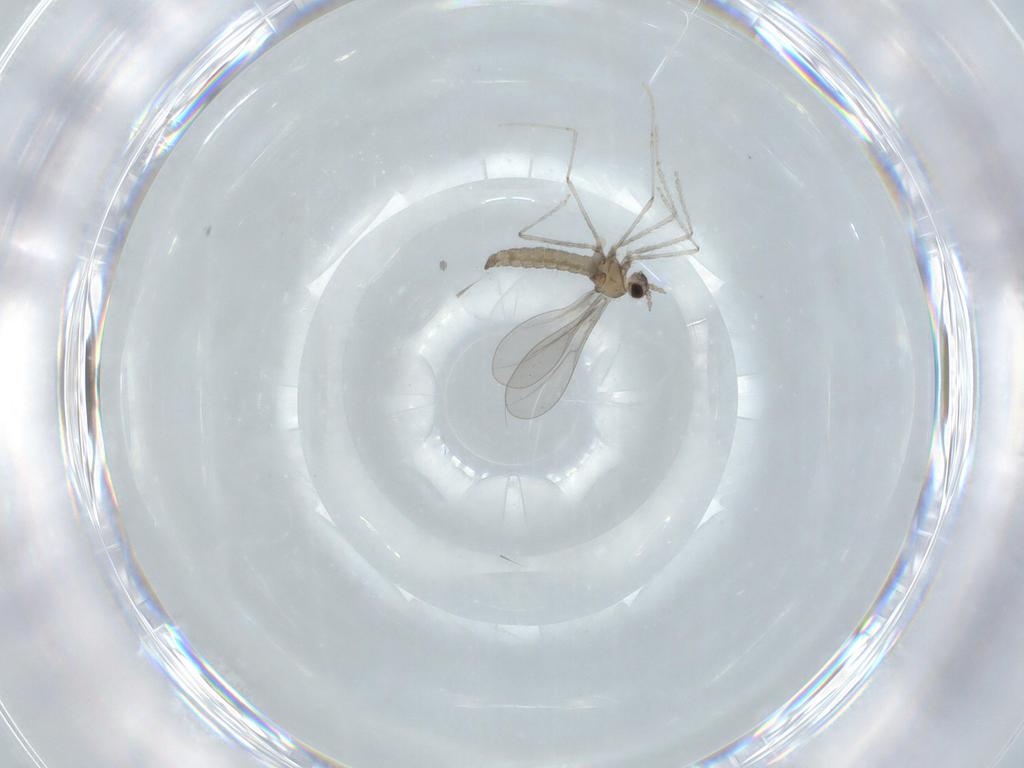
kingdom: Animalia
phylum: Arthropoda
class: Insecta
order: Diptera
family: Cecidomyiidae
